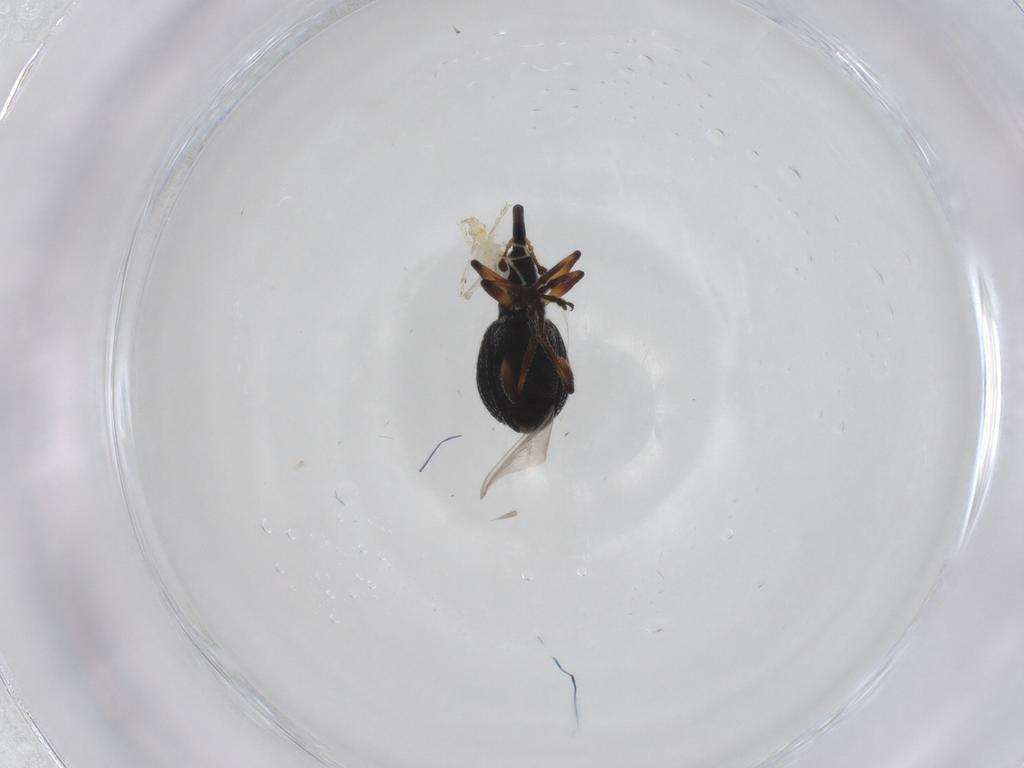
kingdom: Animalia
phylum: Arthropoda
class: Insecta
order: Coleoptera
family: Brentidae
